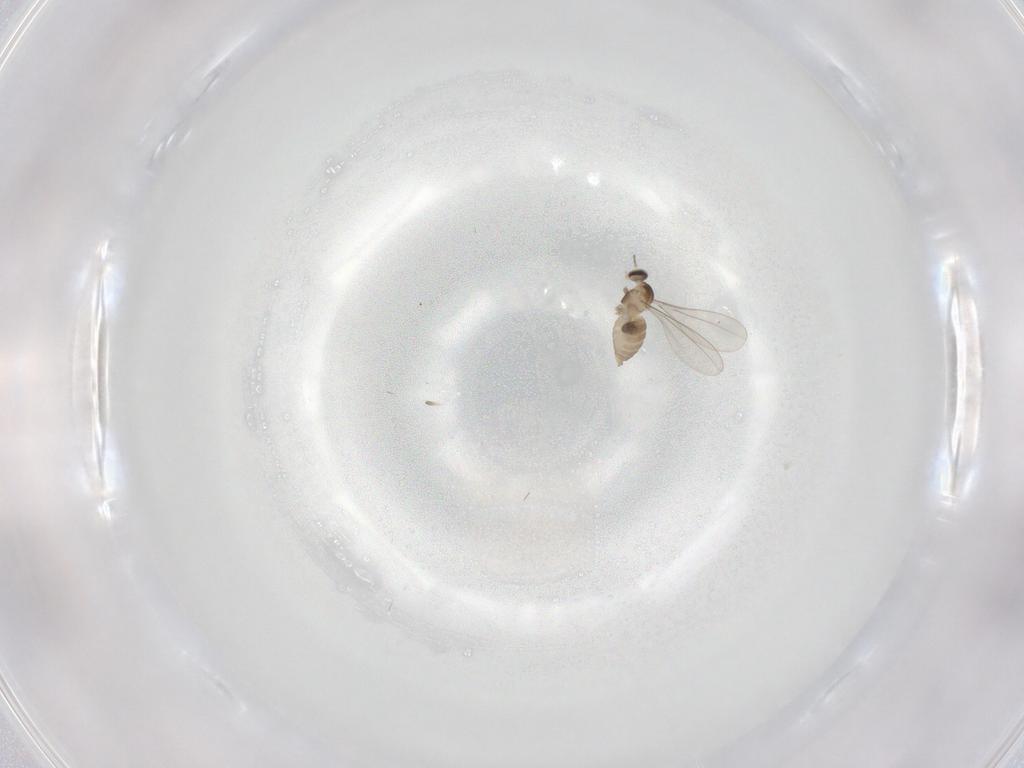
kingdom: Animalia
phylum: Arthropoda
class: Insecta
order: Diptera
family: Cecidomyiidae
